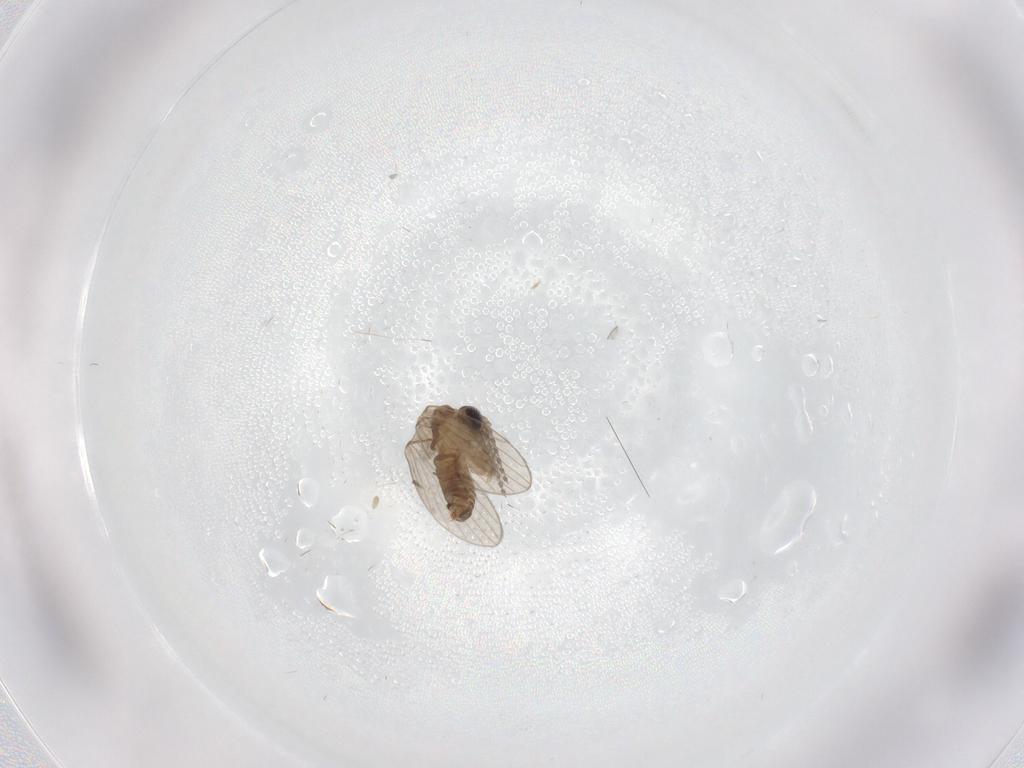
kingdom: Animalia
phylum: Arthropoda
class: Insecta
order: Diptera
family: Psychodidae
